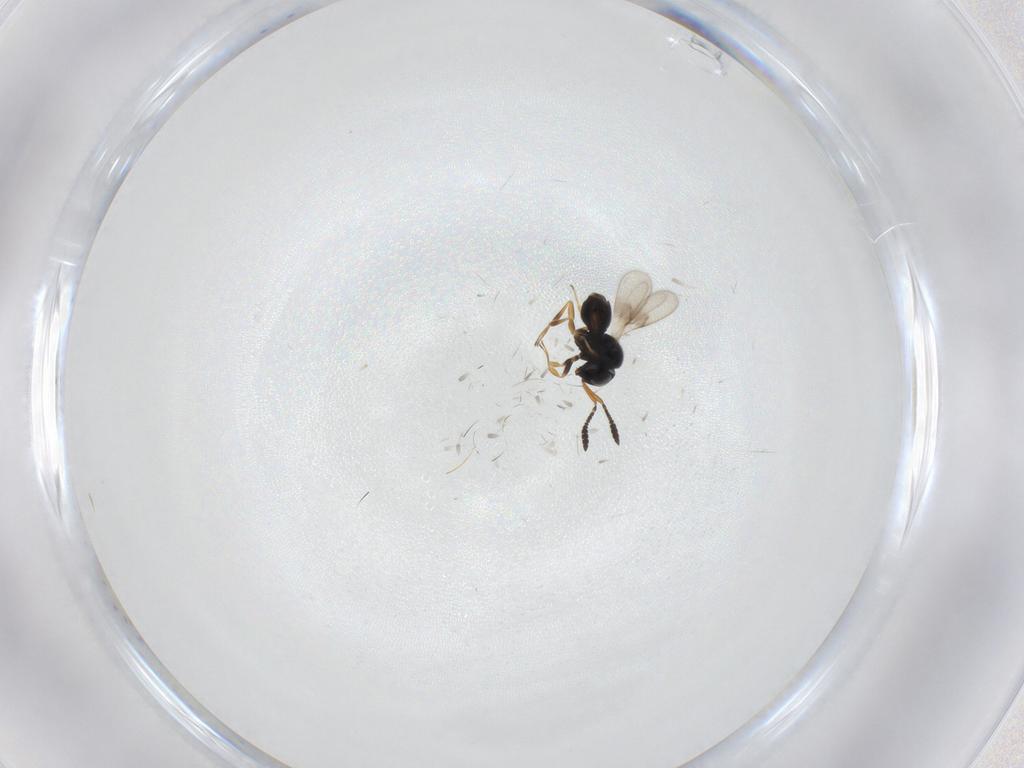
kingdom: Animalia
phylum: Arthropoda
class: Insecta
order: Hymenoptera
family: Scelionidae
